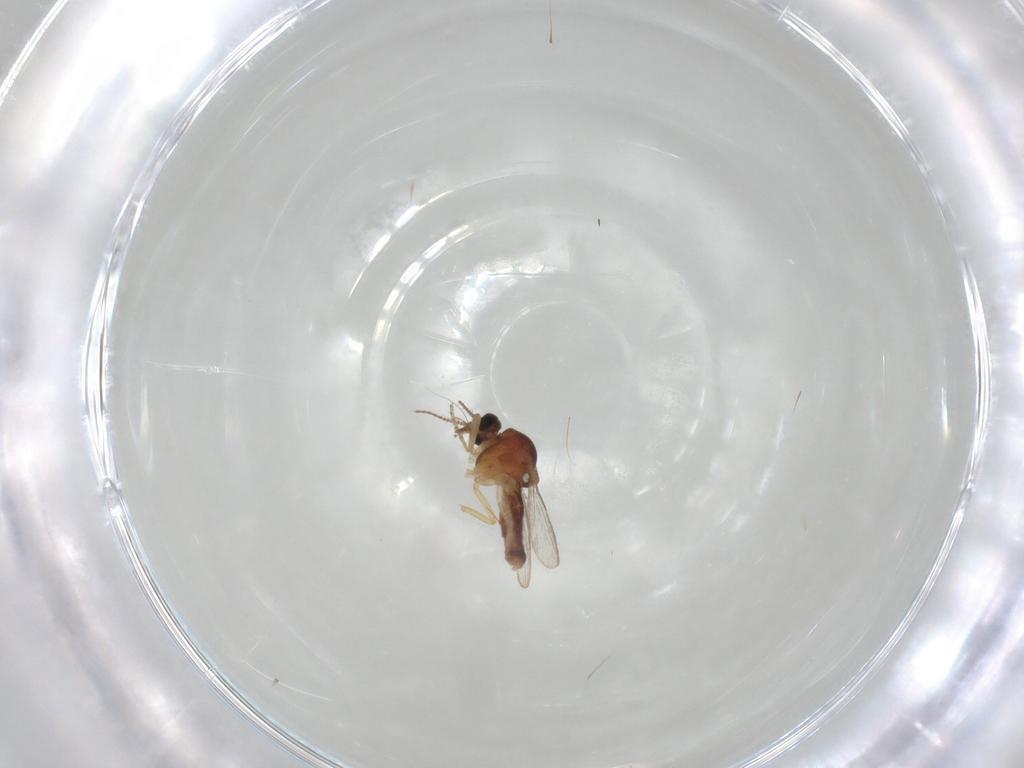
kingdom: Animalia
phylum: Arthropoda
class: Insecta
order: Diptera
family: Ceratopogonidae
